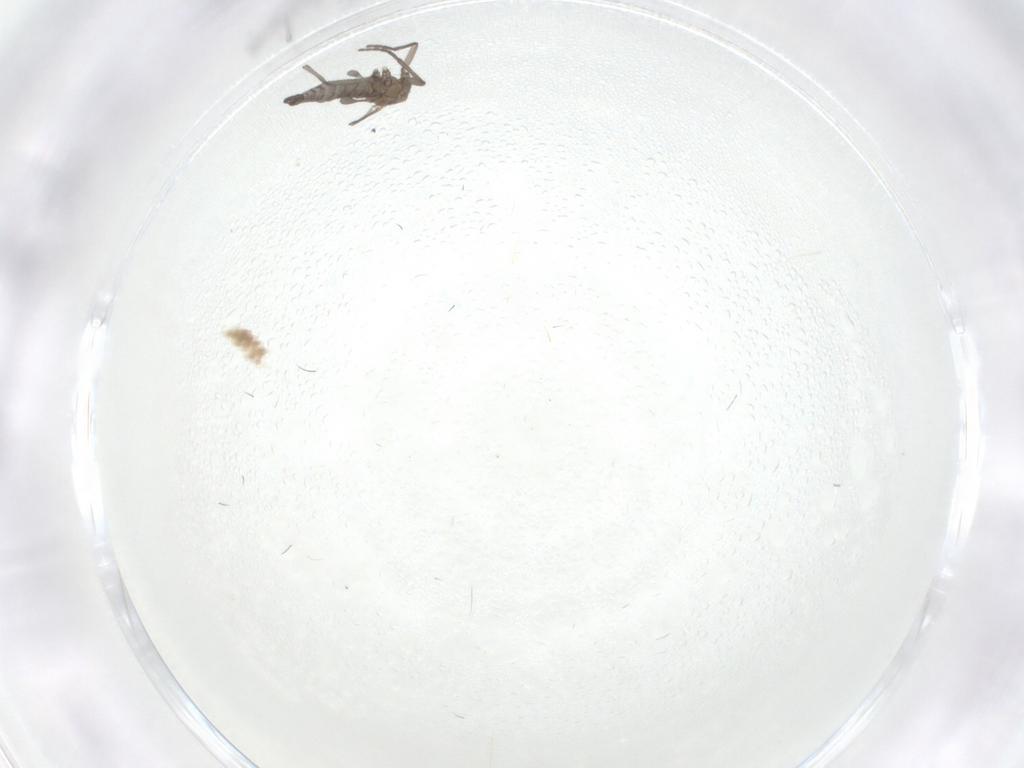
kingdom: Animalia
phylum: Arthropoda
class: Insecta
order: Diptera
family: Sciaridae
